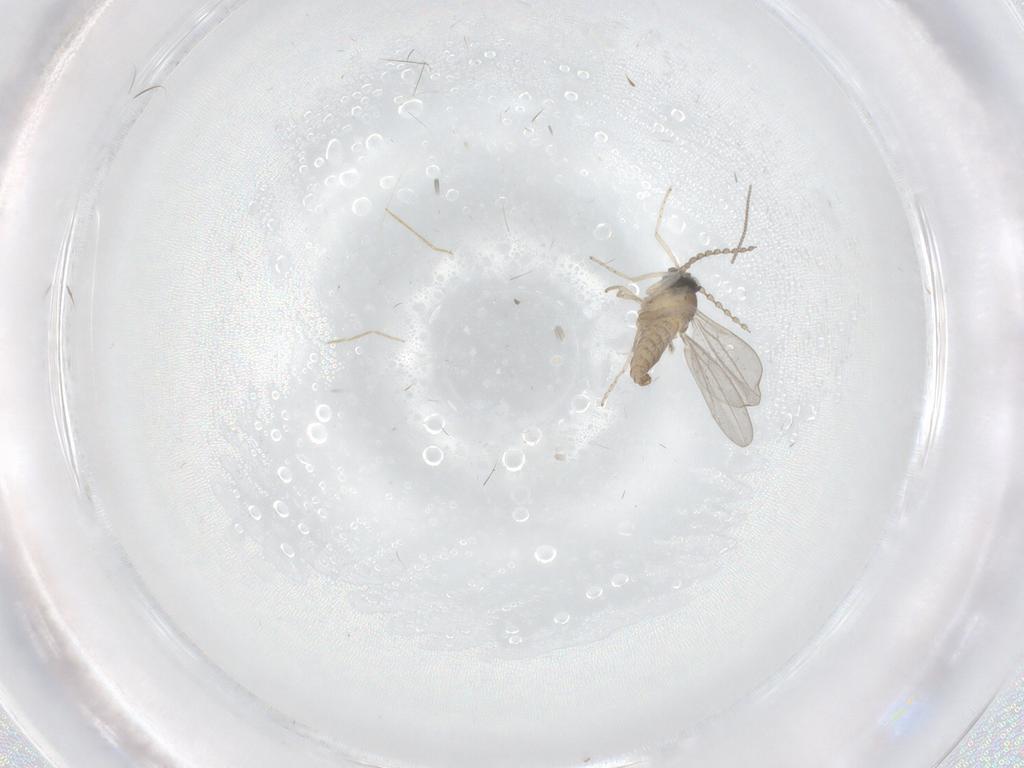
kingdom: Animalia
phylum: Arthropoda
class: Insecta
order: Diptera
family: Chironomidae
